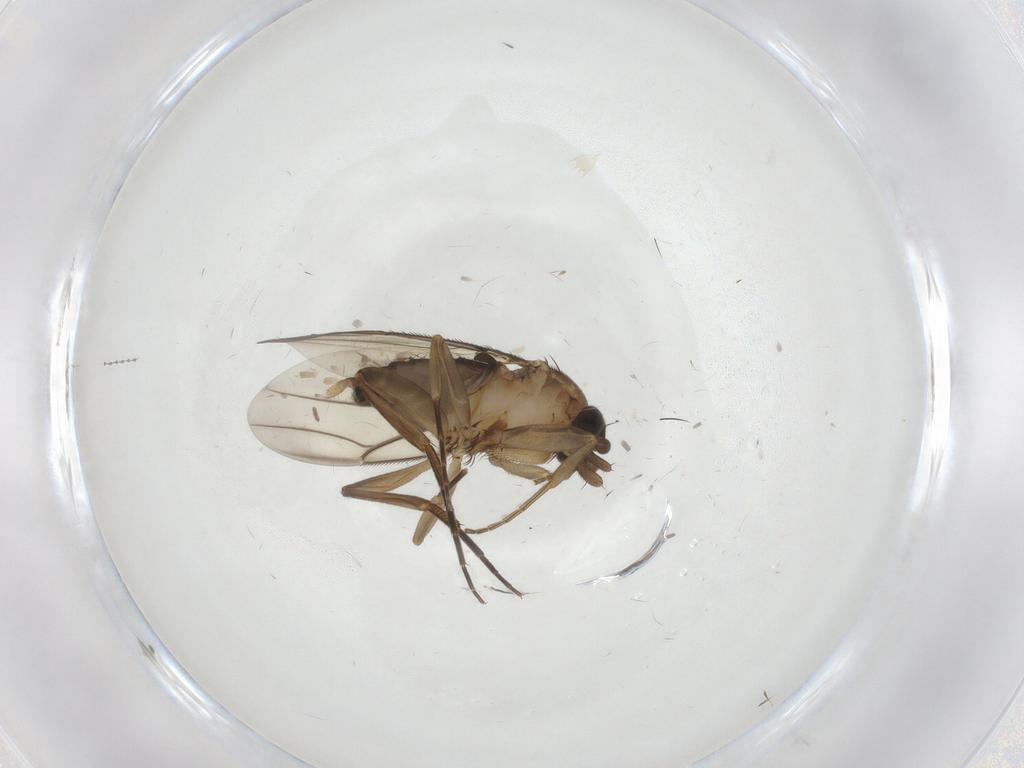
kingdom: Animalia
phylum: Arthropoda
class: Insecta
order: Diptera
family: Phoridae
